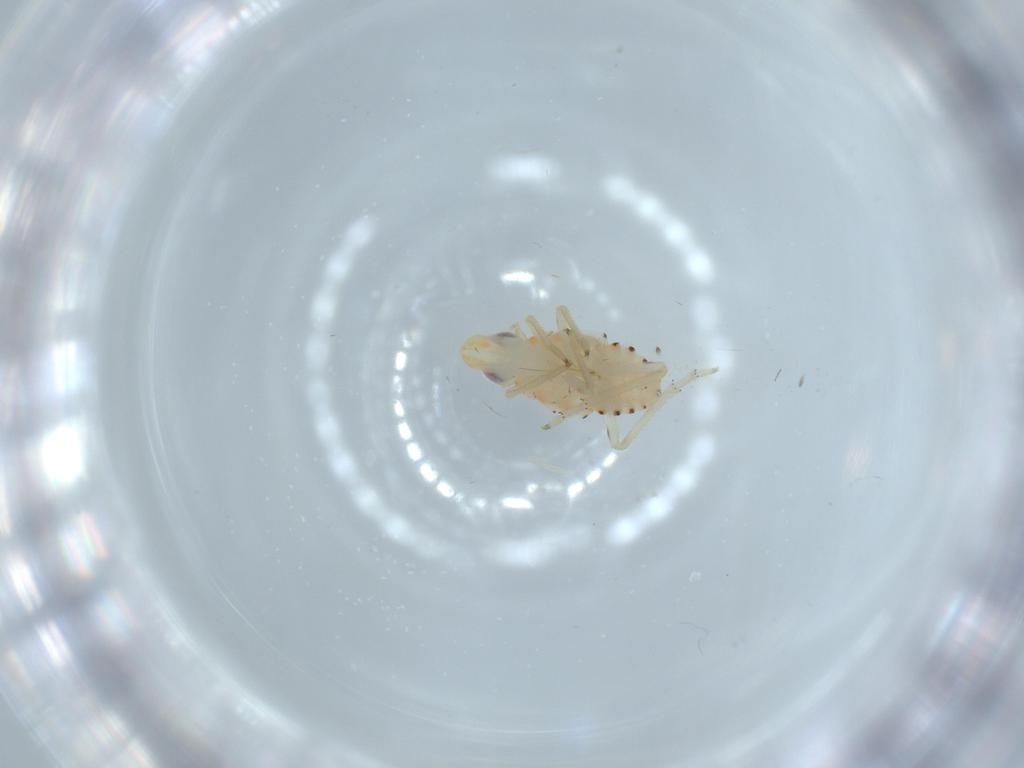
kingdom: Animalia
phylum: Arthropoda
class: Insecta
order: Hemiptera
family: Tropiduchidae
